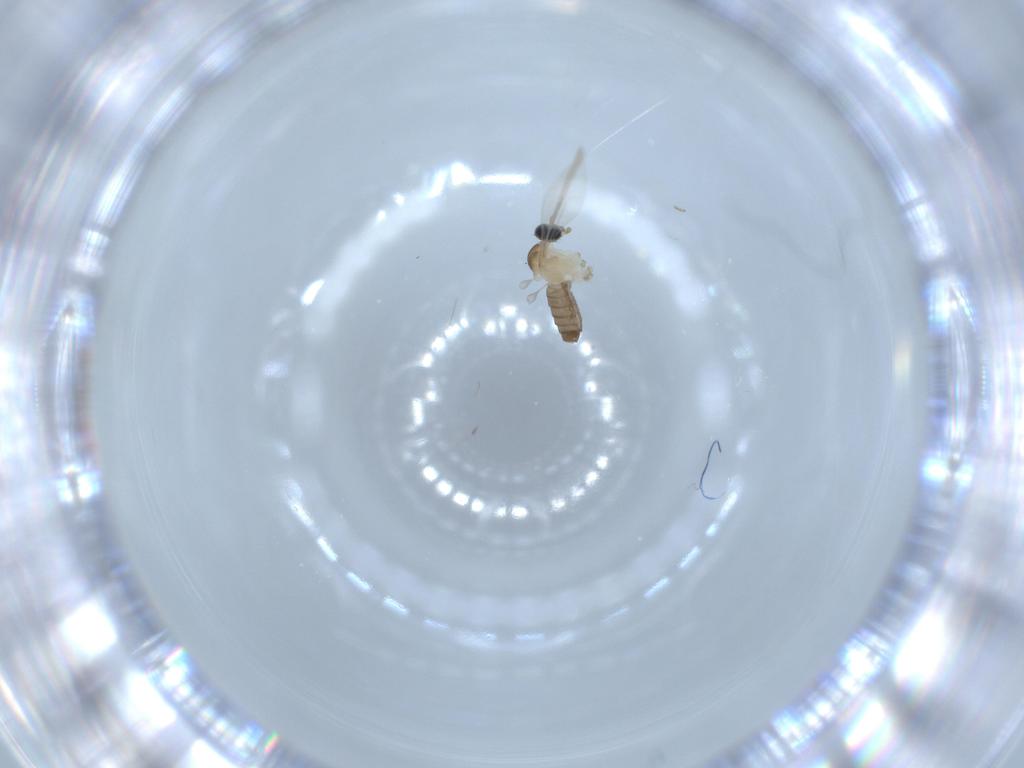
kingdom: Animalia
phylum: Arthropoda
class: Insecta
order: Diptera
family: Cecidomyiidae
